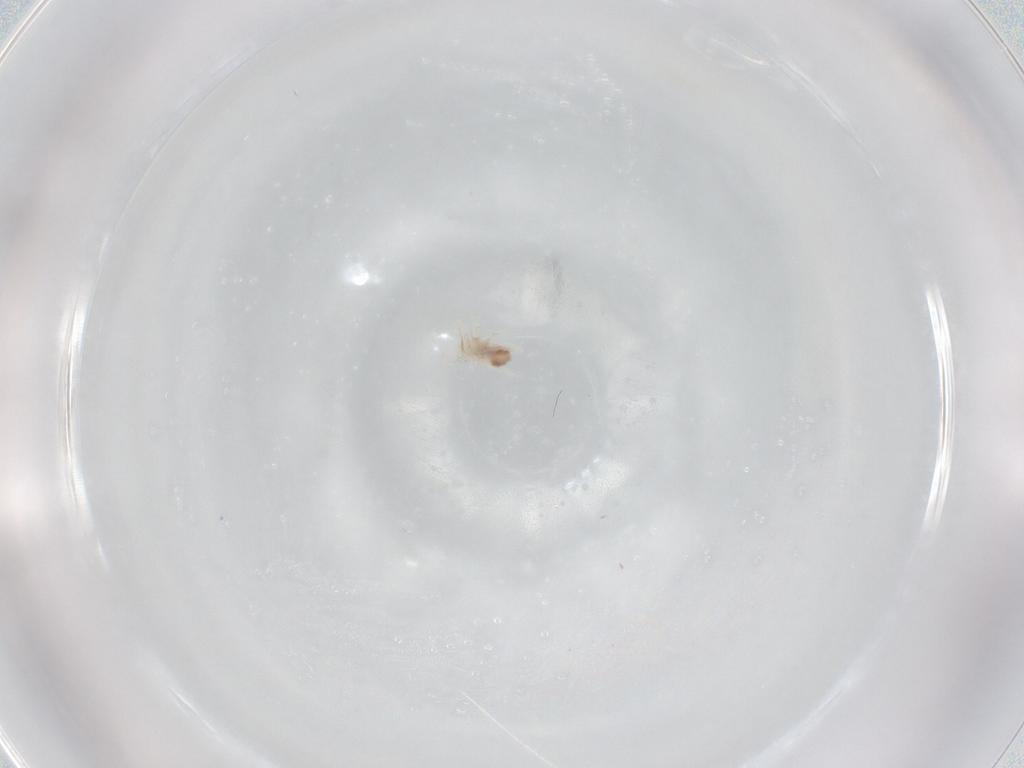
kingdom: Animalia
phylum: Arthropoda
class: Arachnida
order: Trombidiformes
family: Anystidae
